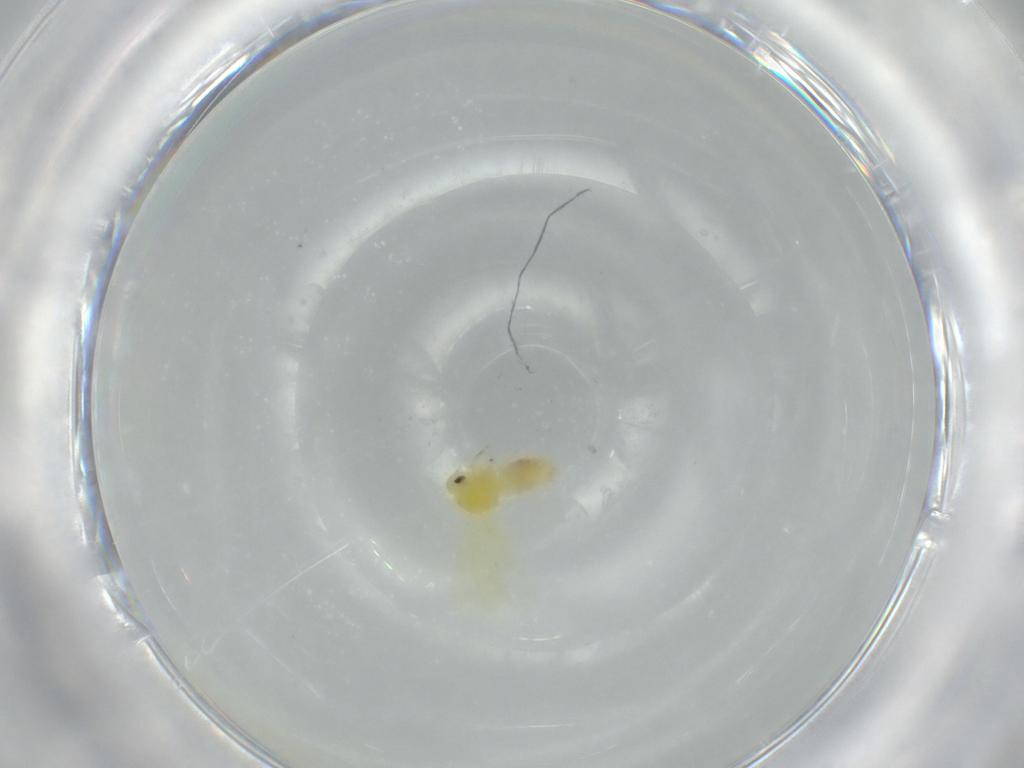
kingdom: Animalia
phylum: Arthropoda
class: Insecta
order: Hemiptera
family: Aleyrodidae
